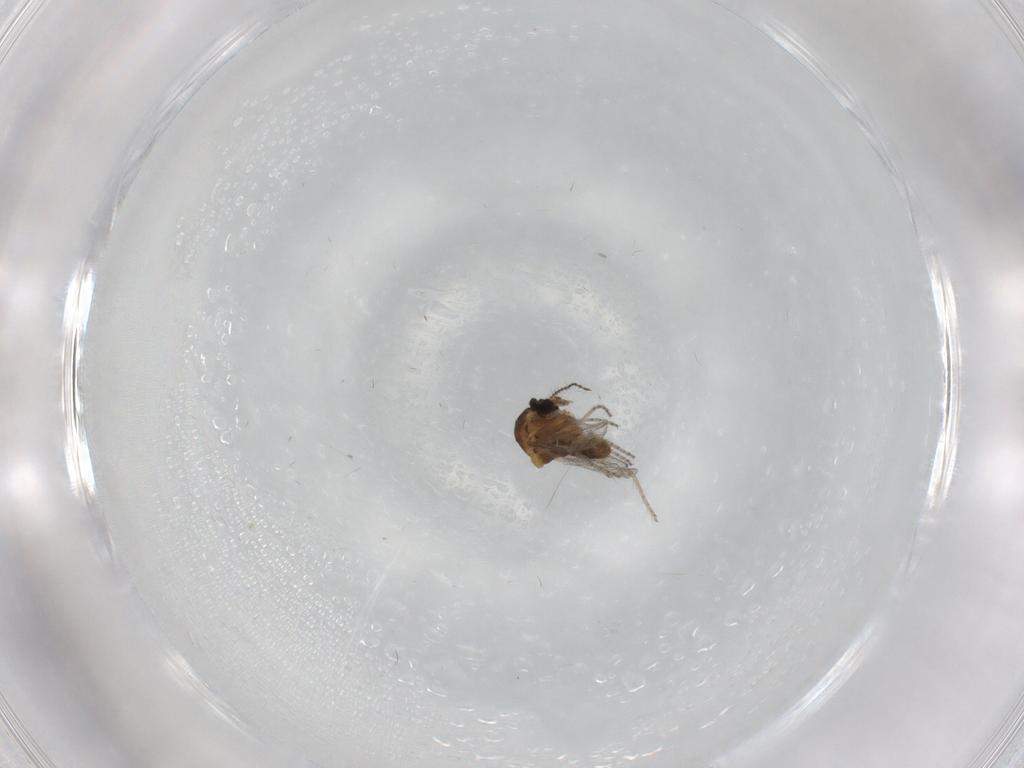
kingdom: Animalia
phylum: Arthropoda
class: Insecta
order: Diptera
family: Ceratopogonidae
